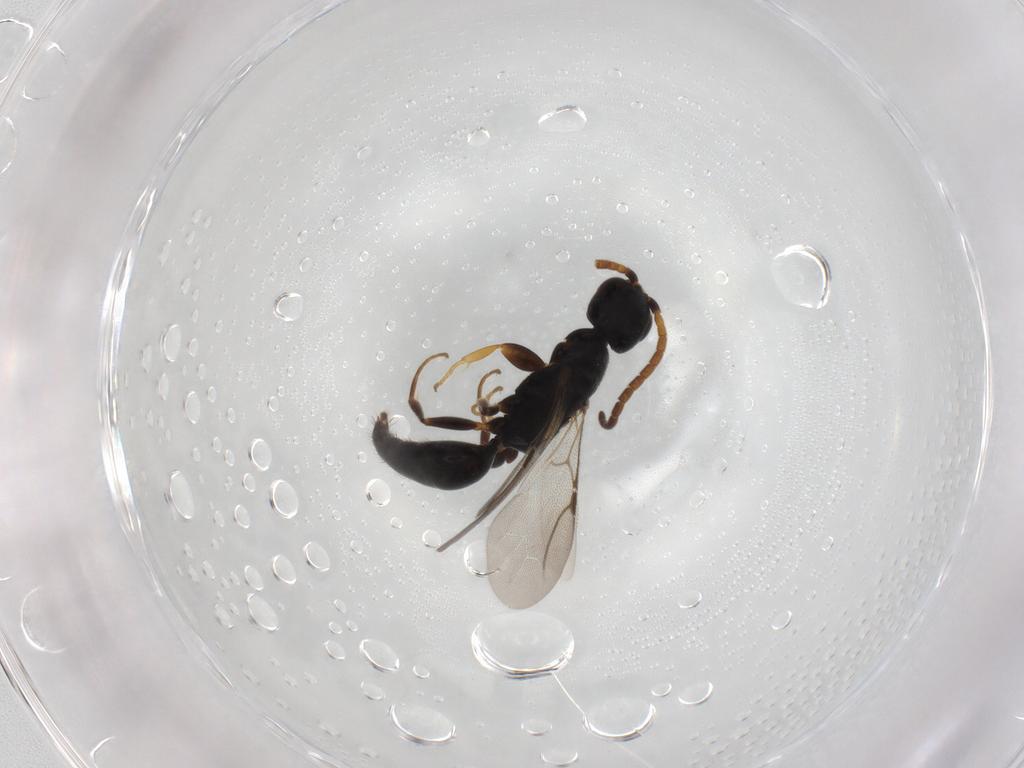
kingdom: Animalia
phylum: Arthropoda
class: Insecta
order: Hymenoptera
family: Bethylidae
